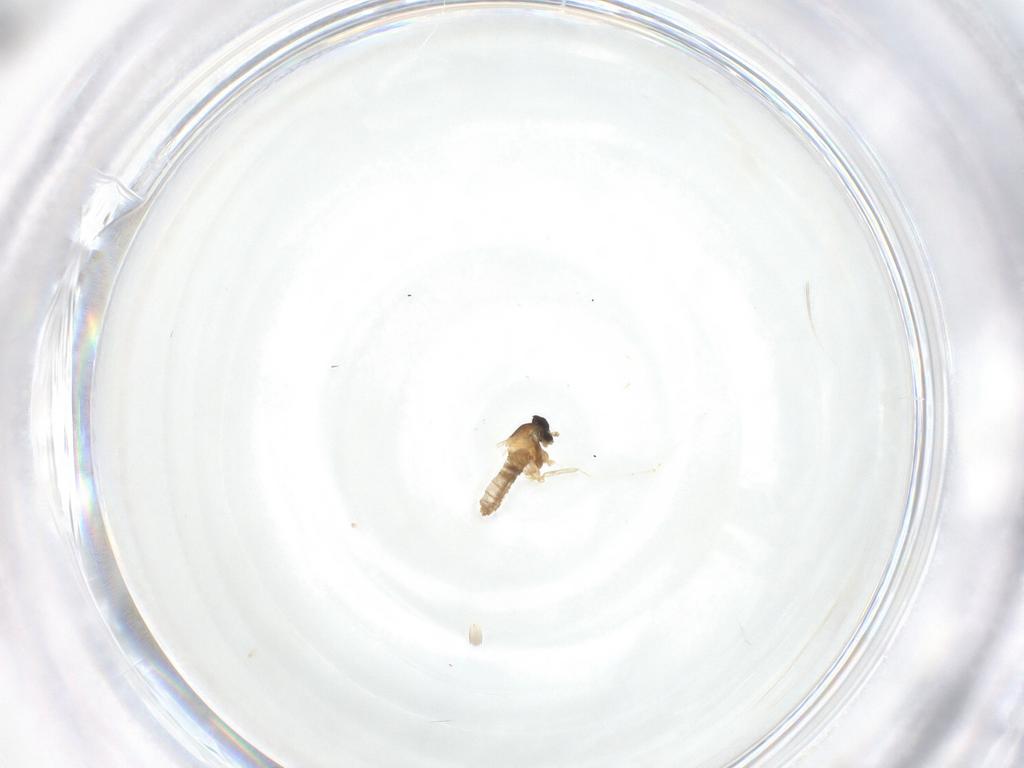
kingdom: Animalia
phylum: Arthropoda
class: Insecta
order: Diptera
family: Cecidomyiidae
